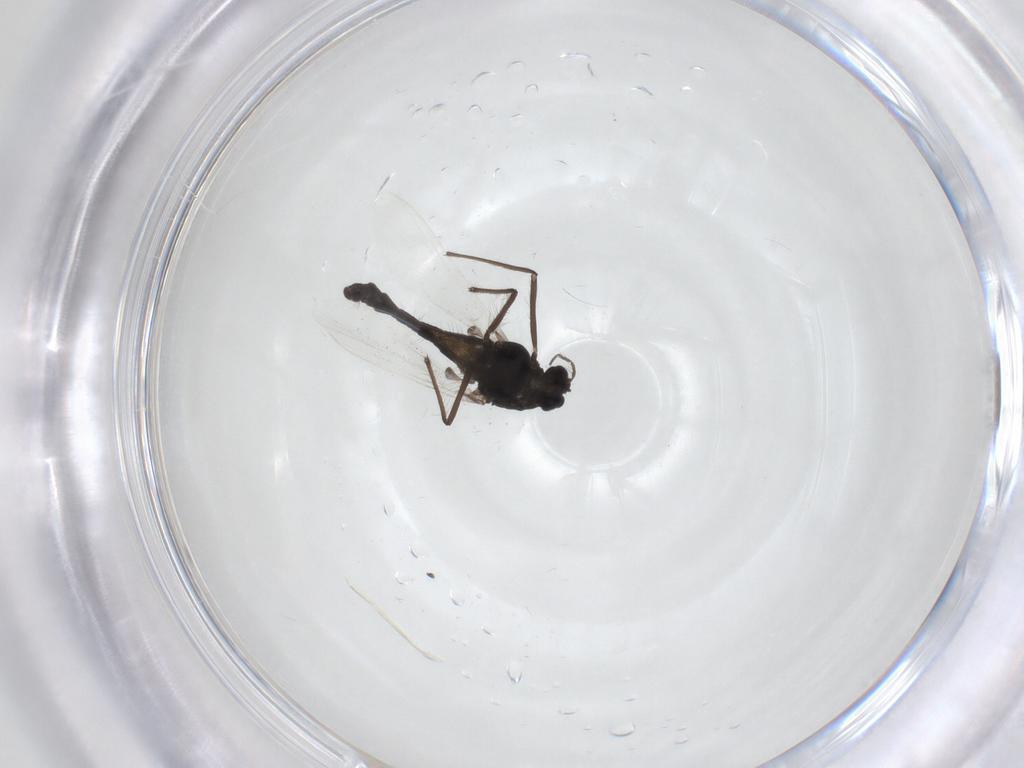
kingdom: Animalia
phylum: Arthropoda
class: Insecta
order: Diptera
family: Chironomidae
